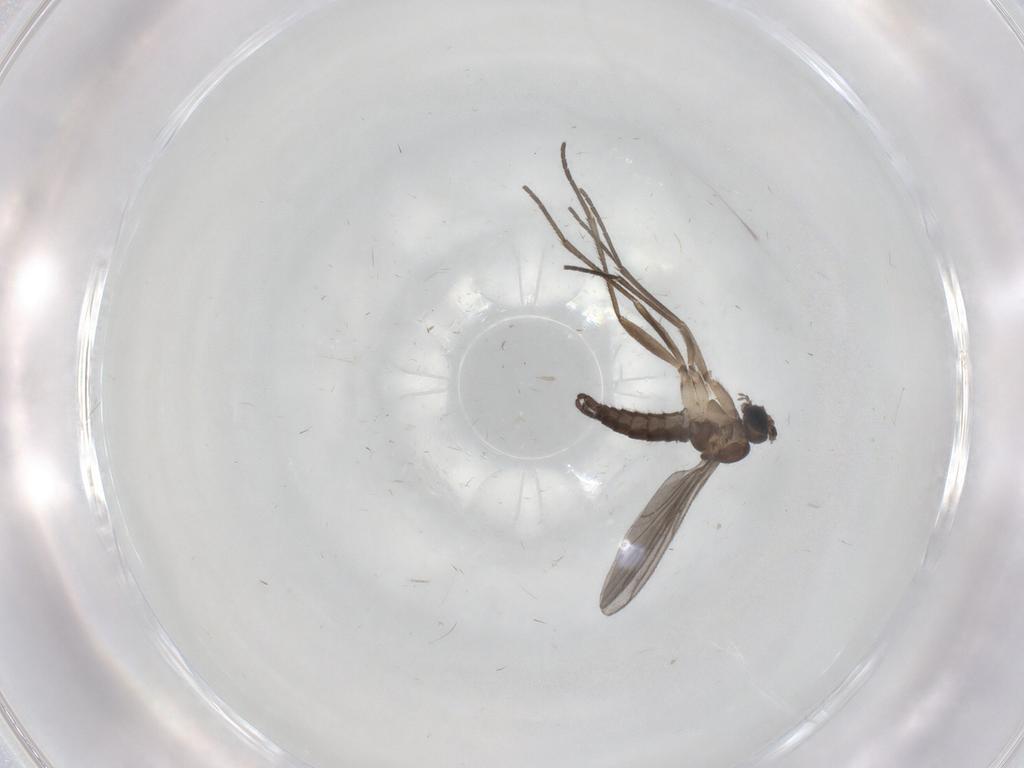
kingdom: Animalia
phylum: Arthropoda
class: Insecta
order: Diptera
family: Sciaridae
